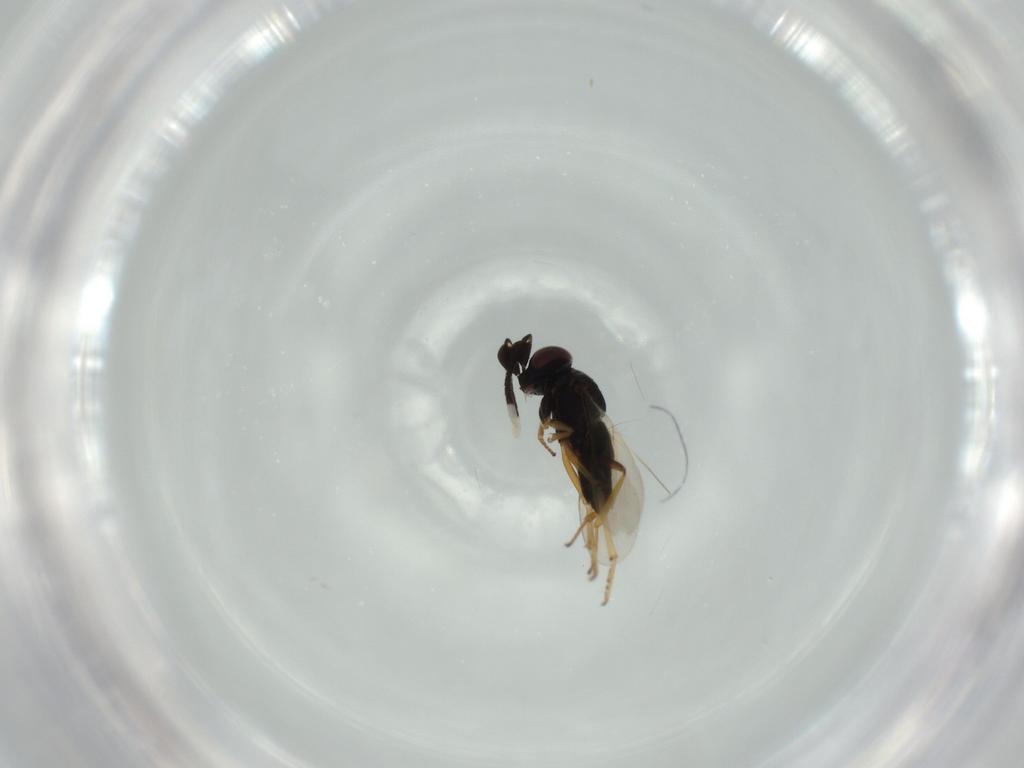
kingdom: Animalia
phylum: Arthropoda
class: Insecta
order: Hymenoptera
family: Encyrtidae
